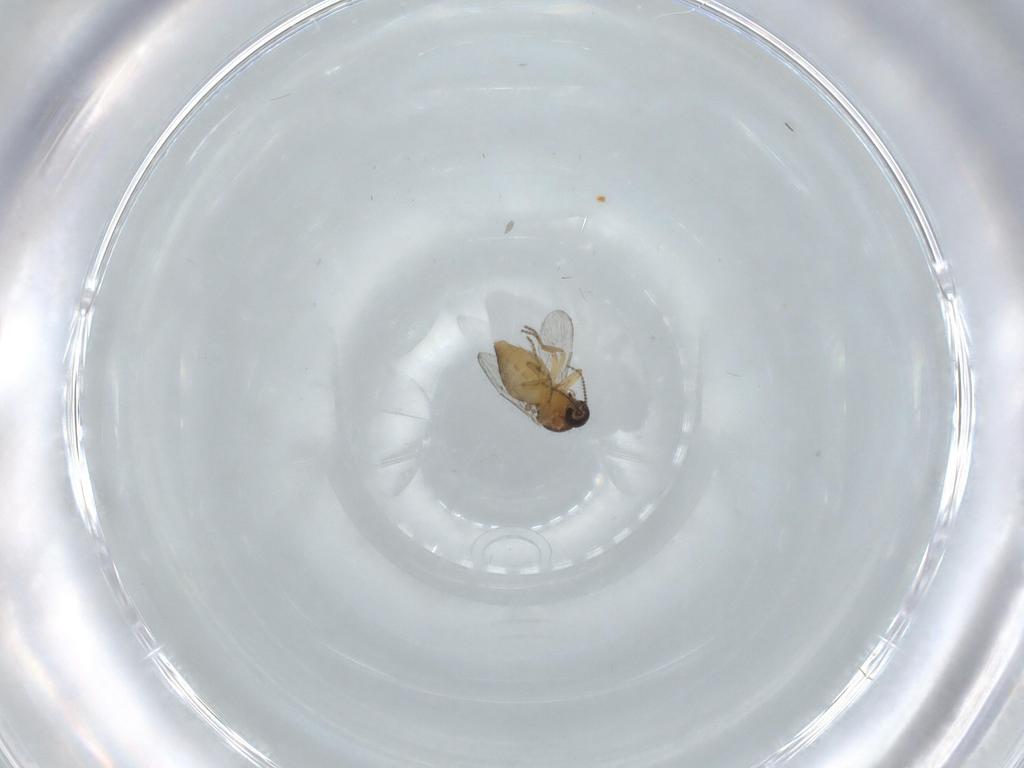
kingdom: Animalia
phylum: Arthropoda
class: Insecta
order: Diptera
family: Ceratopogonidae
